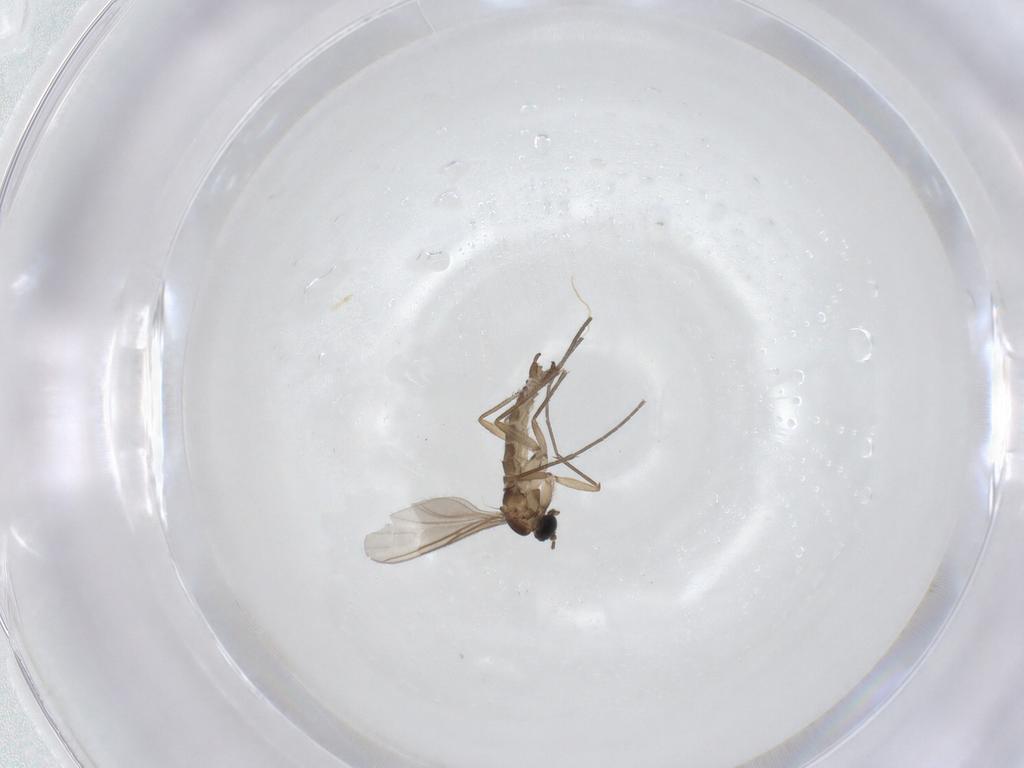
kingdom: Animalia
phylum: Arthropoda
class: Insecta
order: Diptera
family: Sciaridae
